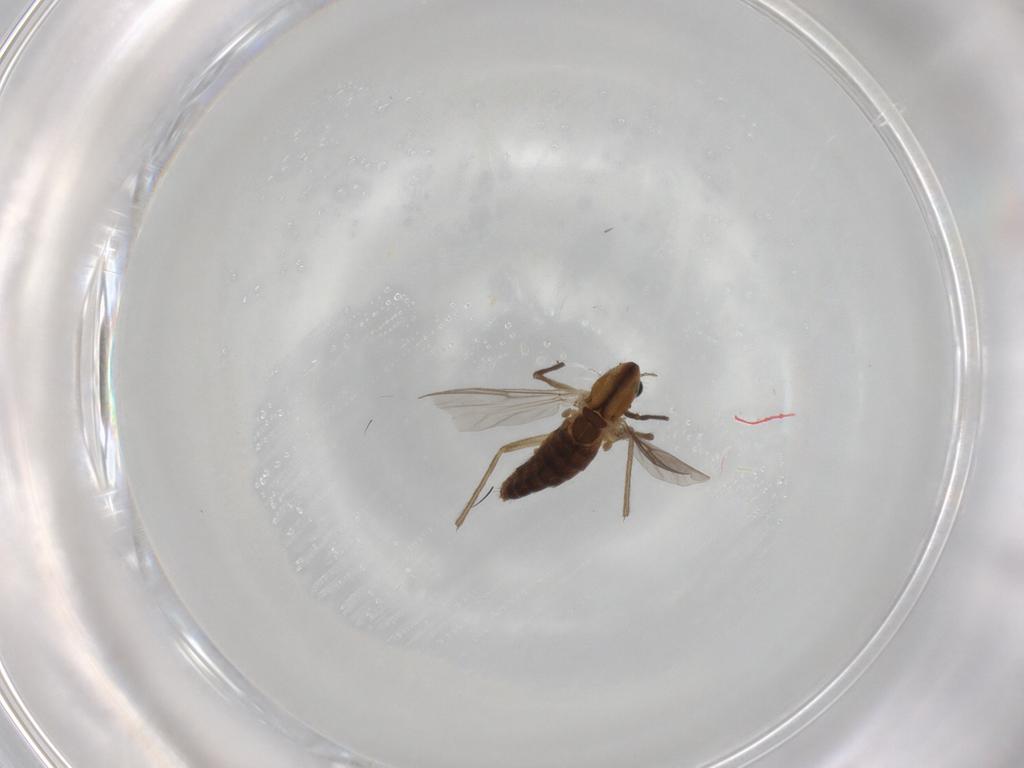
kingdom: Animalia
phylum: Arthropoda
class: Insecta
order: Diptera
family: Chironomidae
